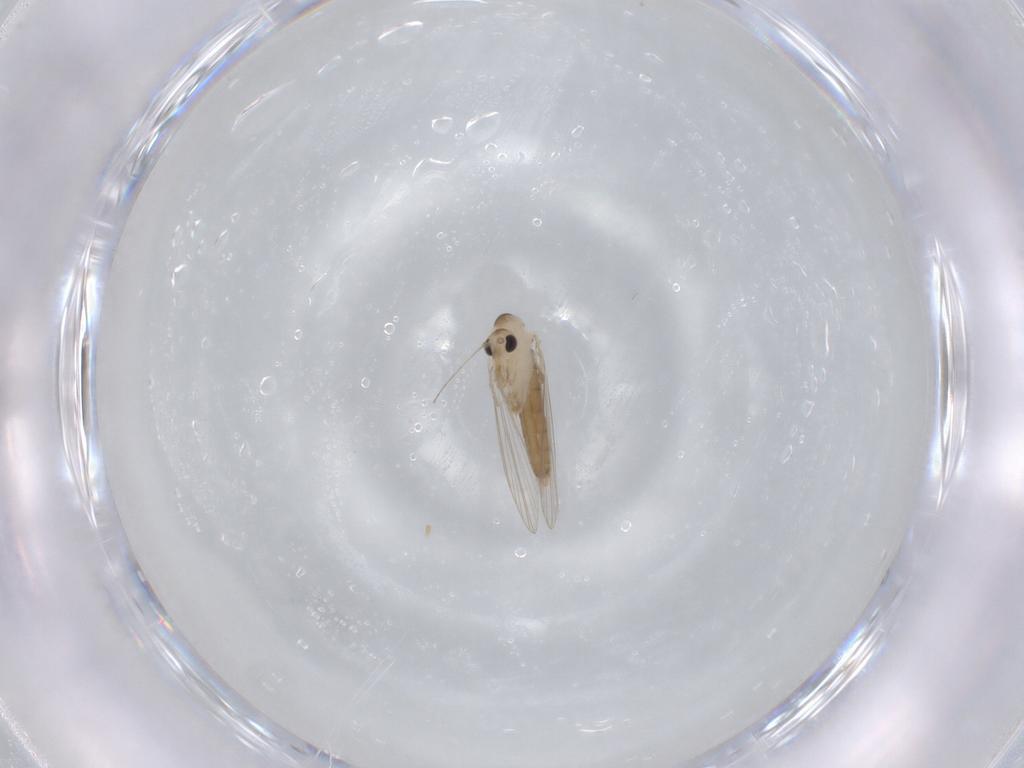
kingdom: Animalia
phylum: Arthropoda
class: Insecta
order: Diptera
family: Psychodidae
